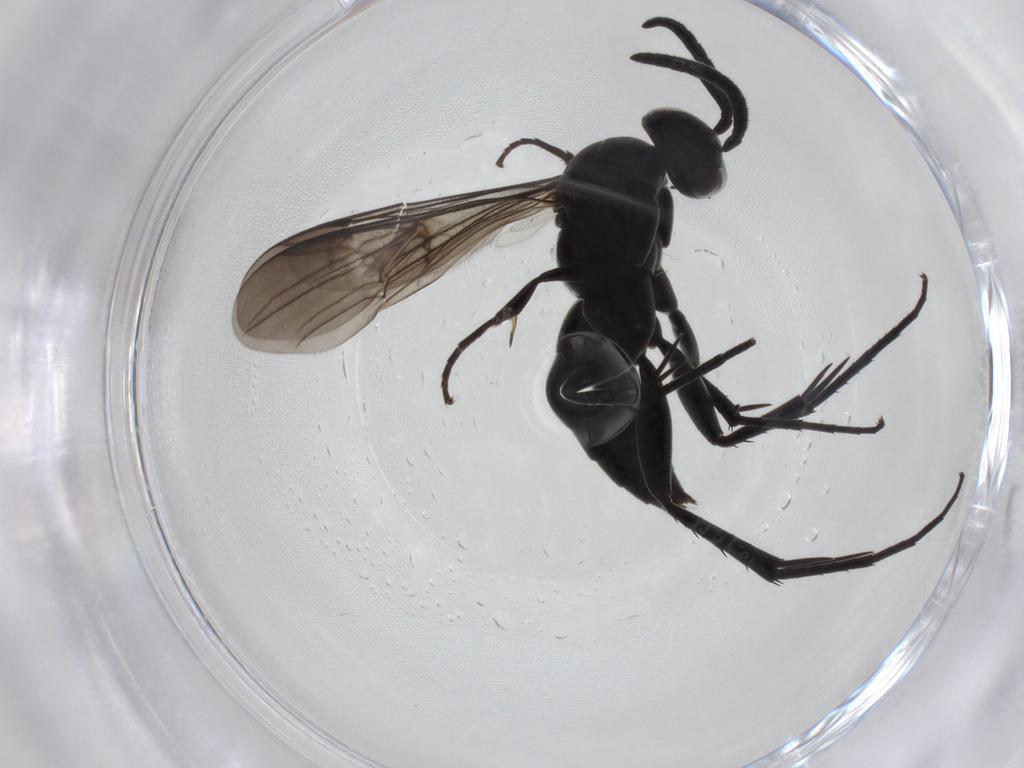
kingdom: Animalia
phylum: Arthropoda
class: Insecta
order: Hymenoptera
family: Pompilidae
